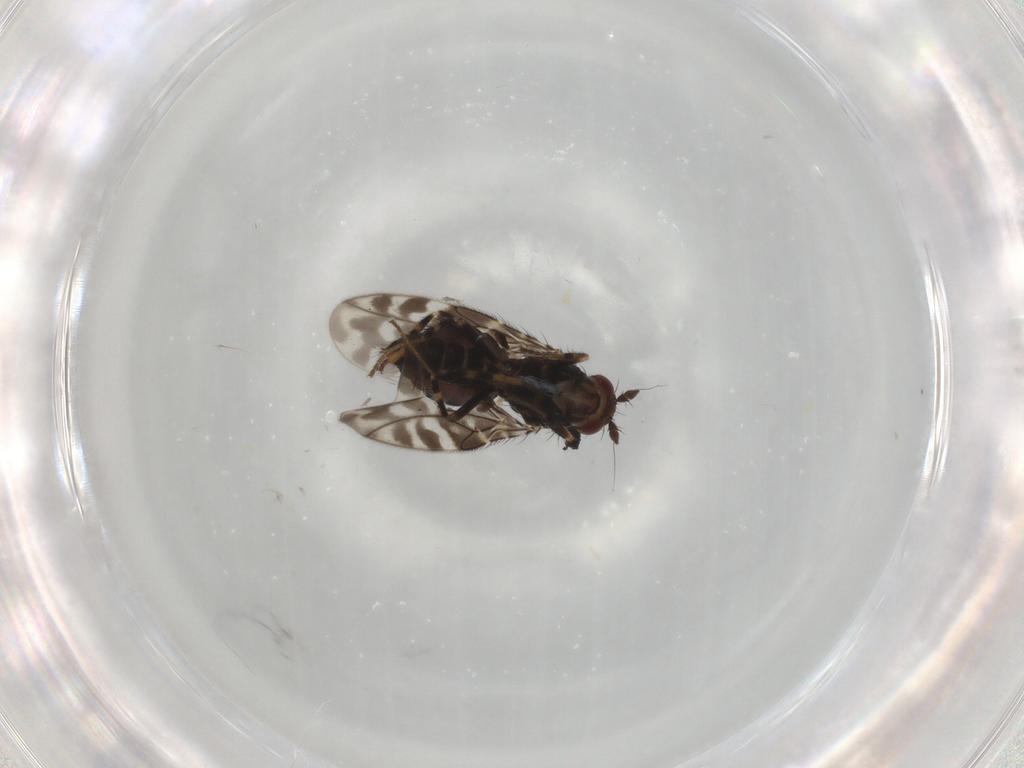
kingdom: Animalia
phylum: Arthropoda
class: Insecta
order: Diptera
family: Sphaeroceridae
